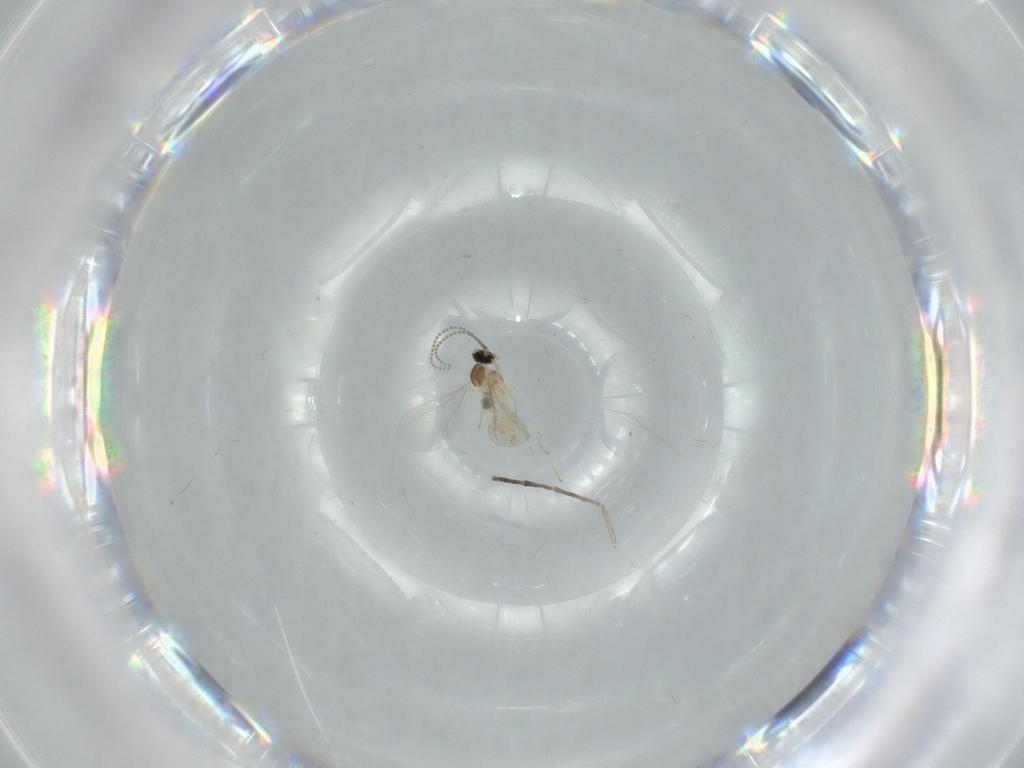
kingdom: Animalia
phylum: Arthropoda
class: Insecta
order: Diptera
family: Cecidomyiidae
